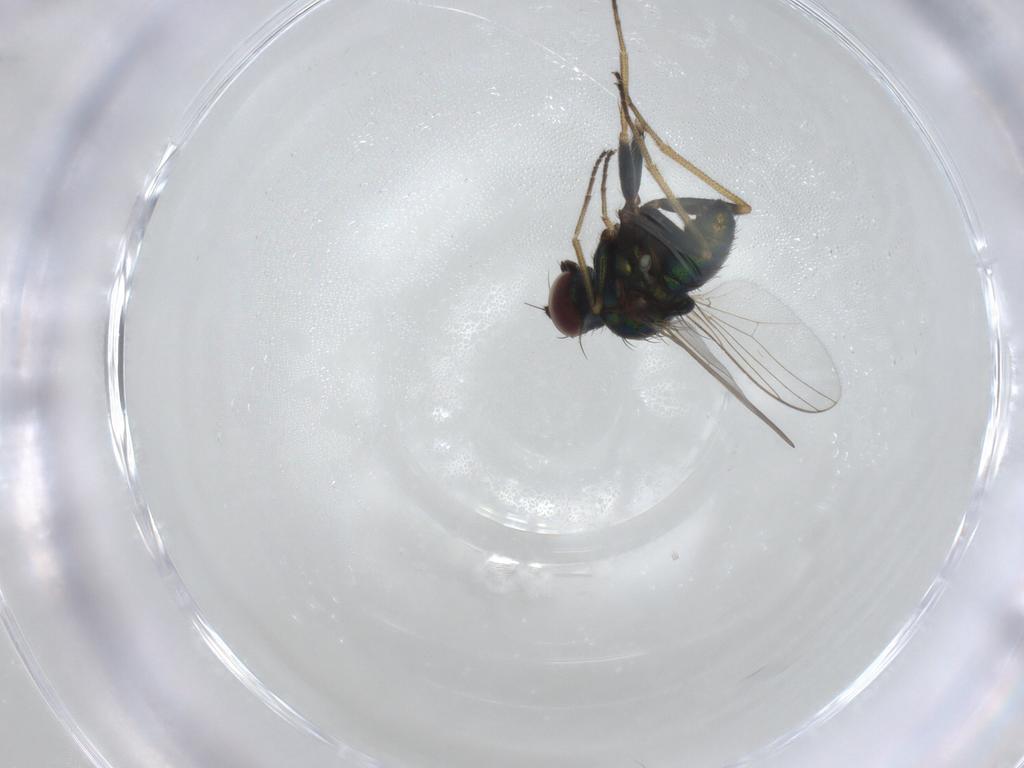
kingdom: Animalia
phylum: Arthropoda
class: Insecta
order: Diptera
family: Dolichopodidae
